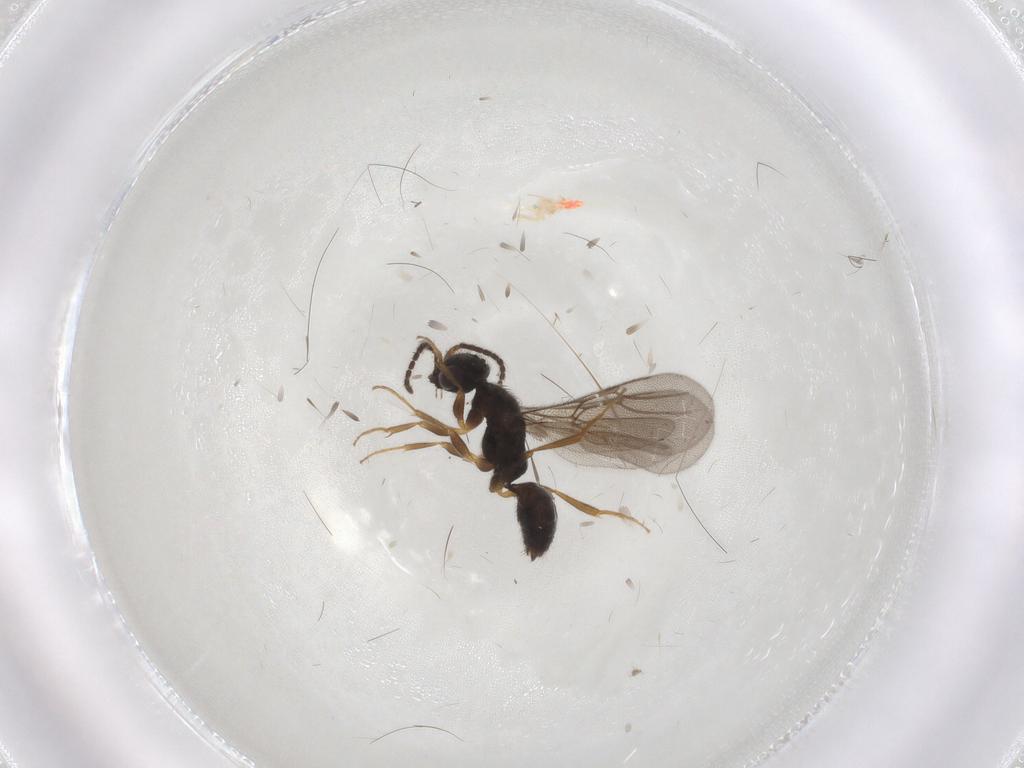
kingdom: Animalia
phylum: Arthropoda
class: Insecta
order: Hymenoptera
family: Bethylidae
